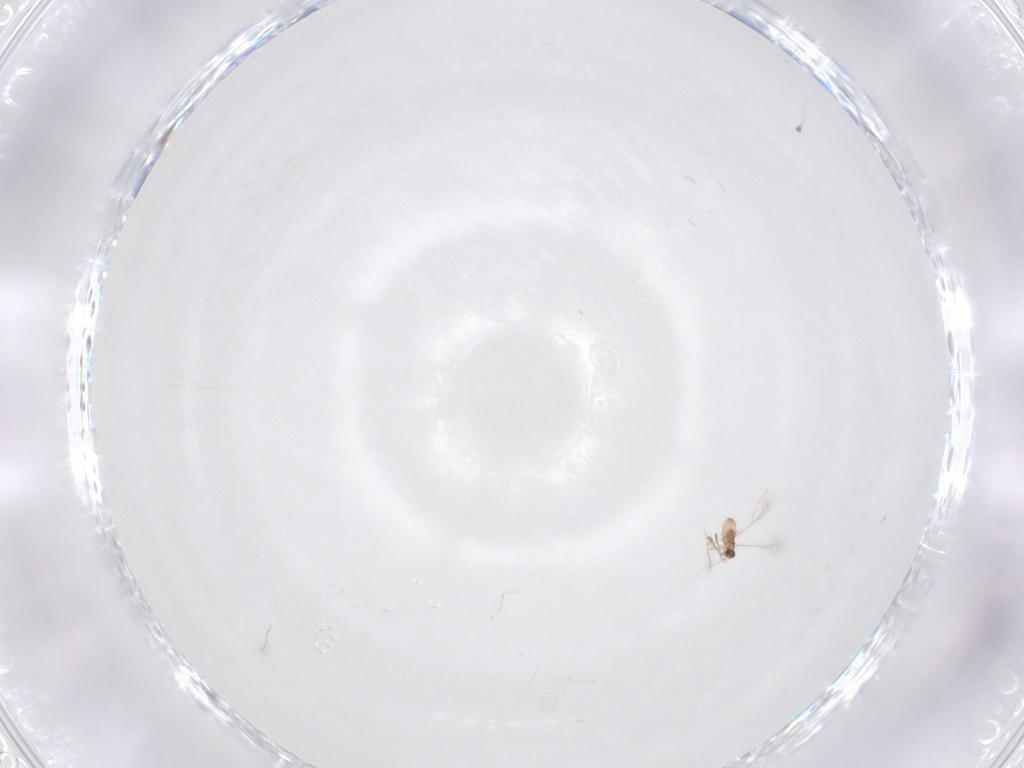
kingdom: Animalia
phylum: Arthropoda
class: Insecta
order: Hymenoptera
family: Mymaridae
